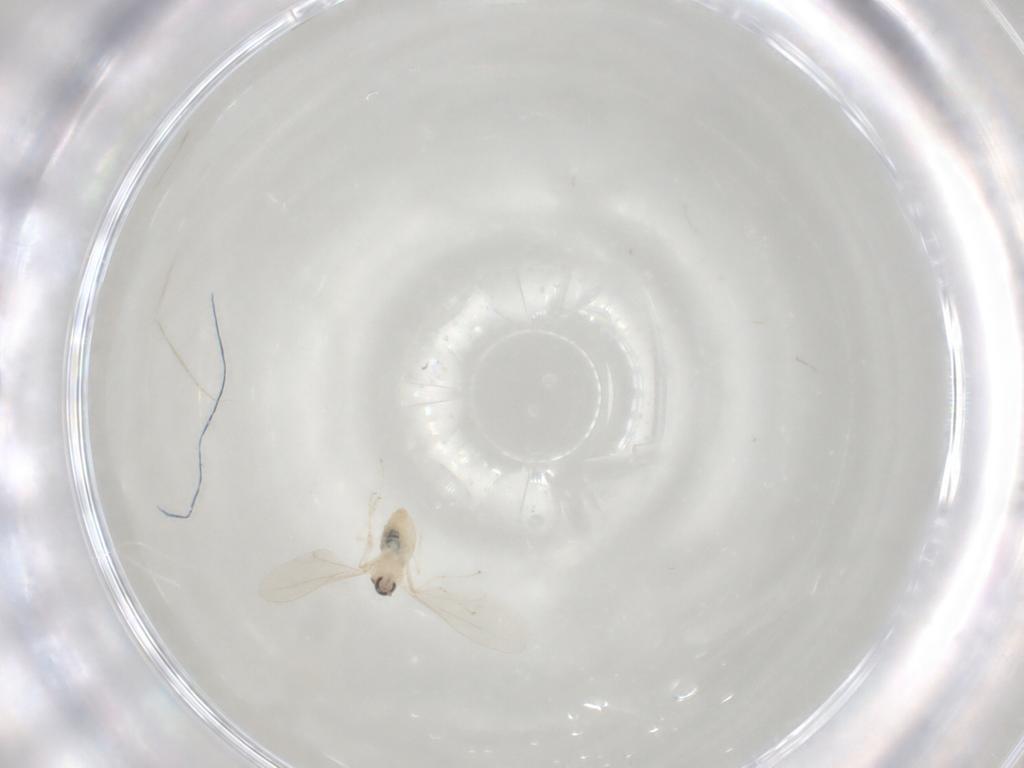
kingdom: Animalia
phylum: Arthropoda
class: Insecta
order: Diptera
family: Cecidomyiidae
